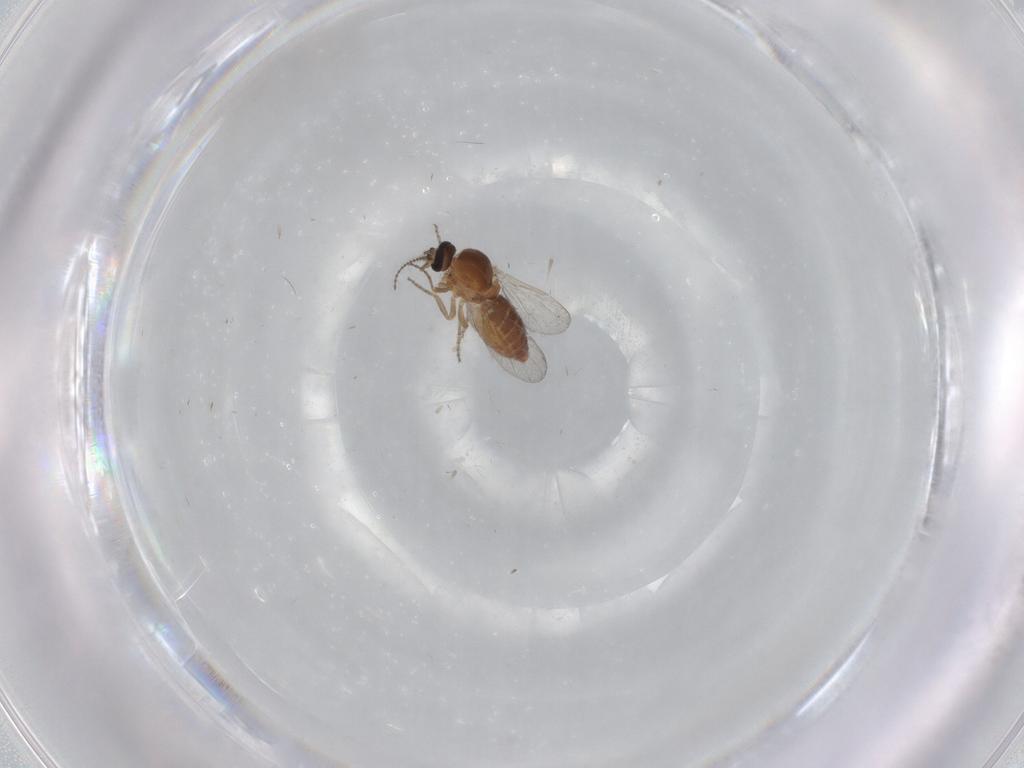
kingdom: Animalia
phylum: Arthropoda
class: Insecta
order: Diptera
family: Ceratopogonidae
